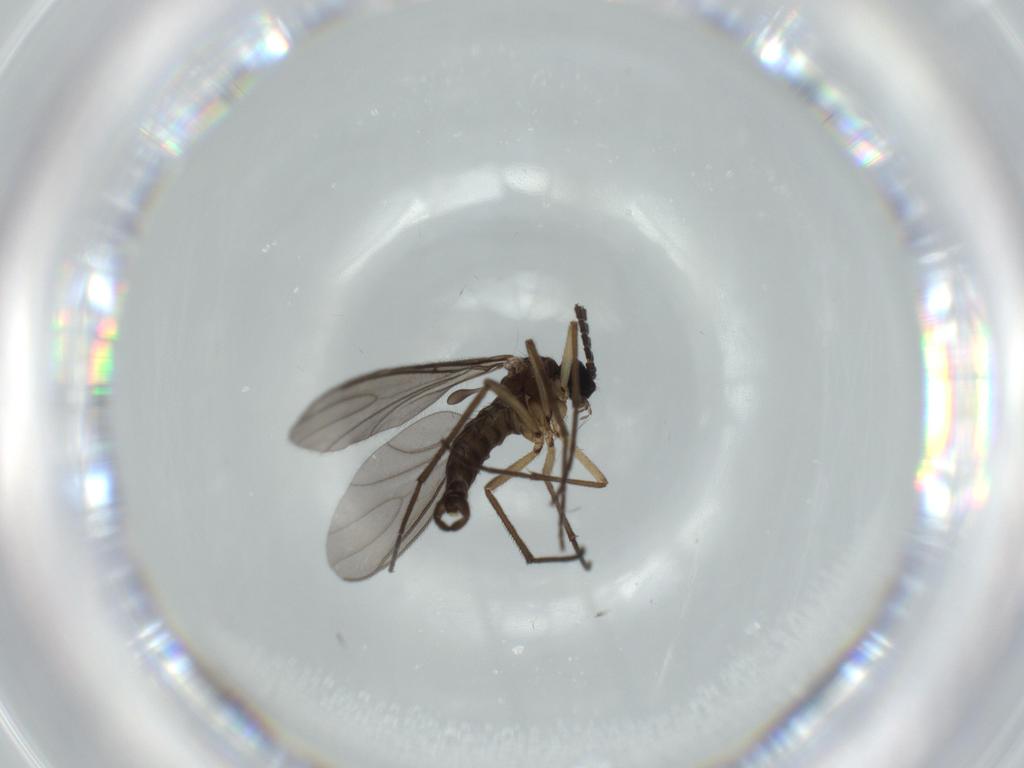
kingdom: Animalia
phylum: Arthropoda
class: Insecta
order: Diptera
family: Sciaridae
